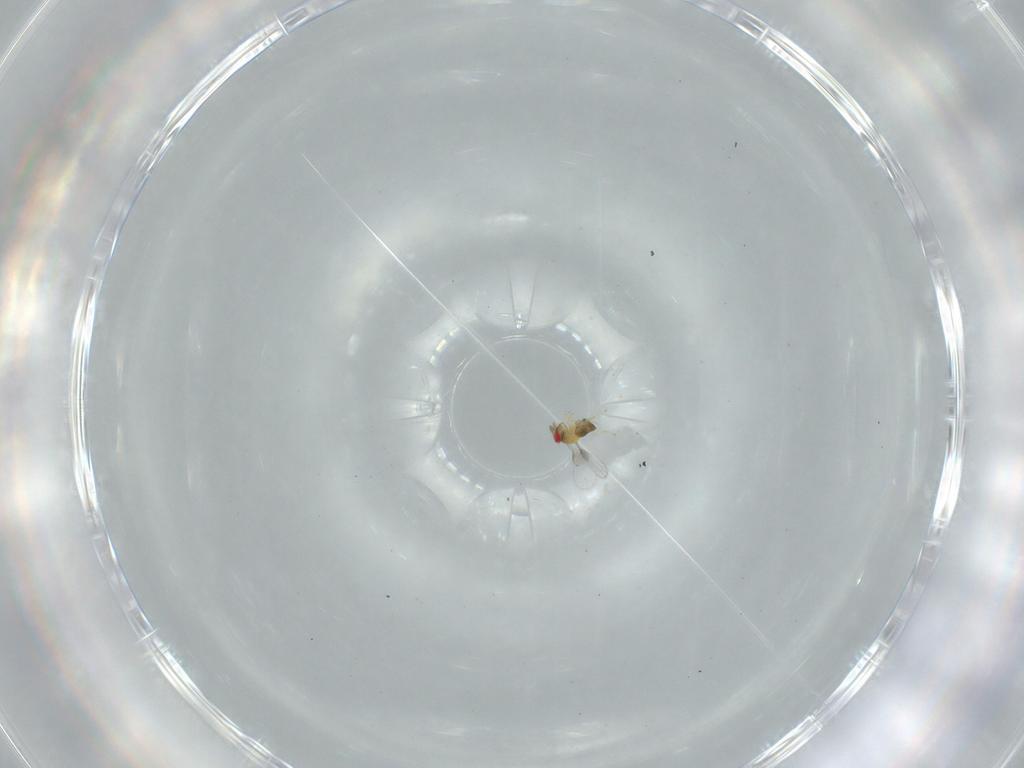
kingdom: Animalia
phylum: Arthropoda
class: Insecta
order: Hymenoptera
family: Trichogrammatidae
